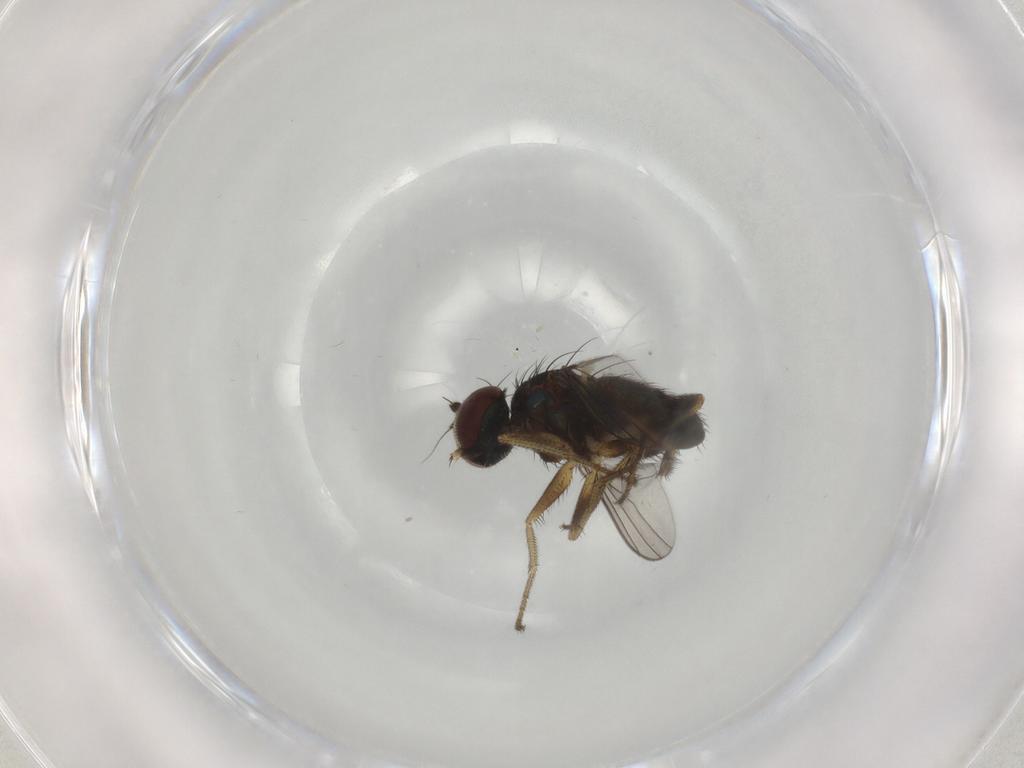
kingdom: Animalia
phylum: Arthropoda
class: Insecta
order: Diptera
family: Dolichopodidae
